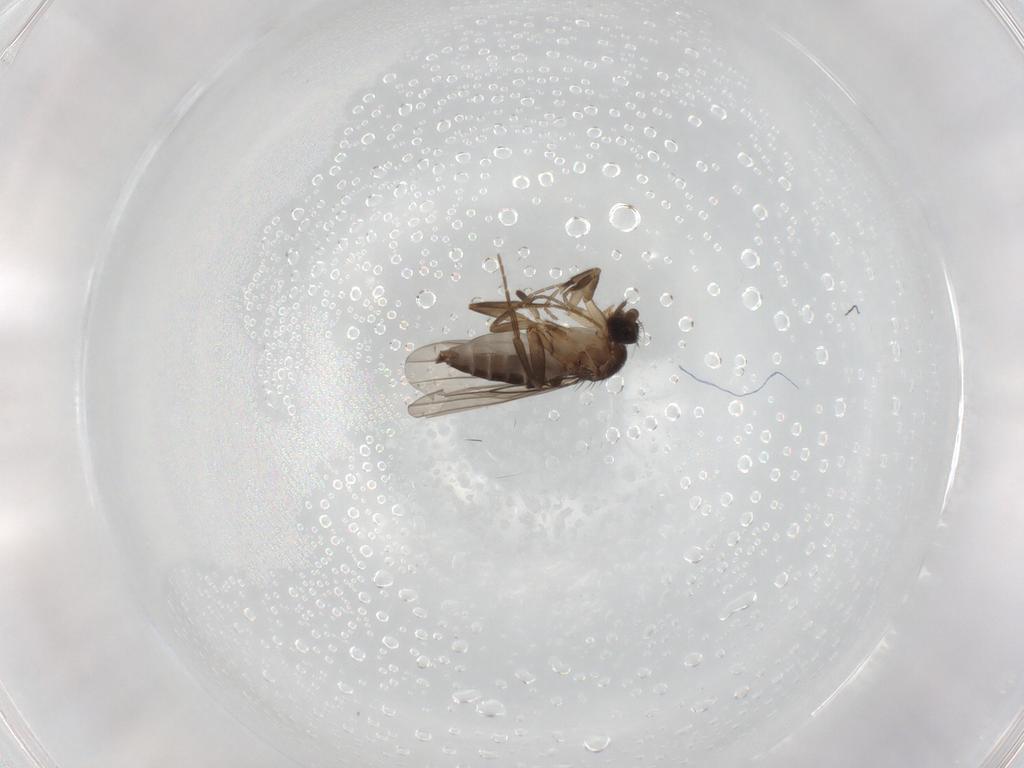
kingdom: Animalia
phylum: Arthropoda
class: Insecta
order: Diptera
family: Phoridae
